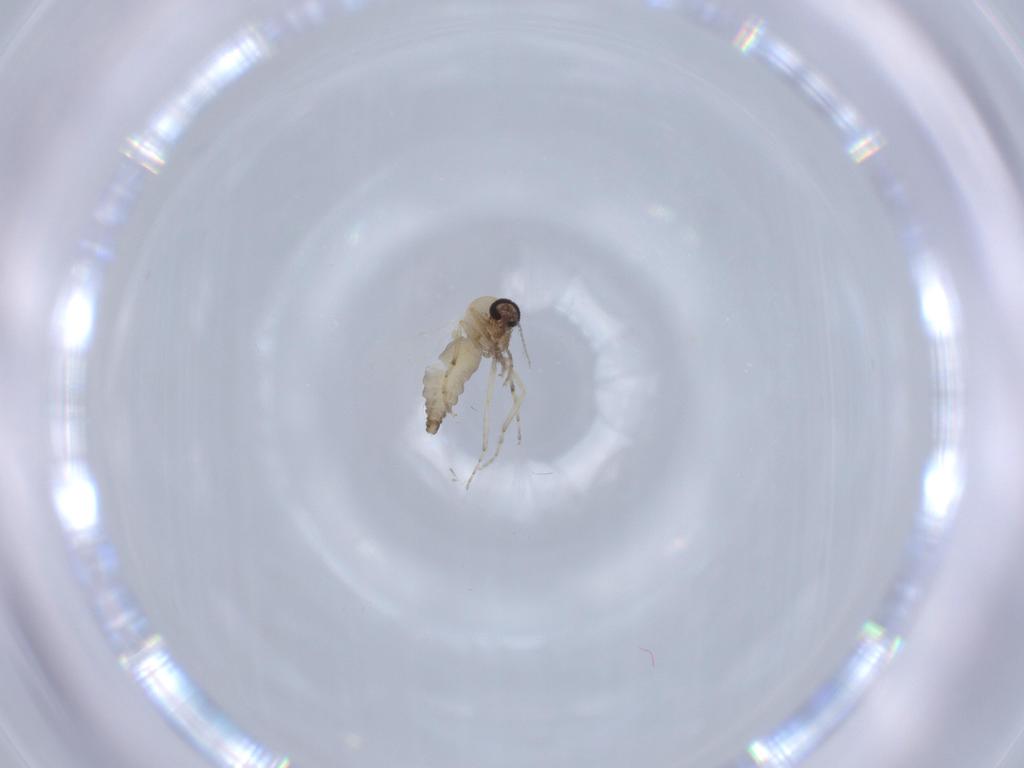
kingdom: Animalia
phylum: Arthropoda
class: Insecta
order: Diptera
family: Ceratopogonidae
